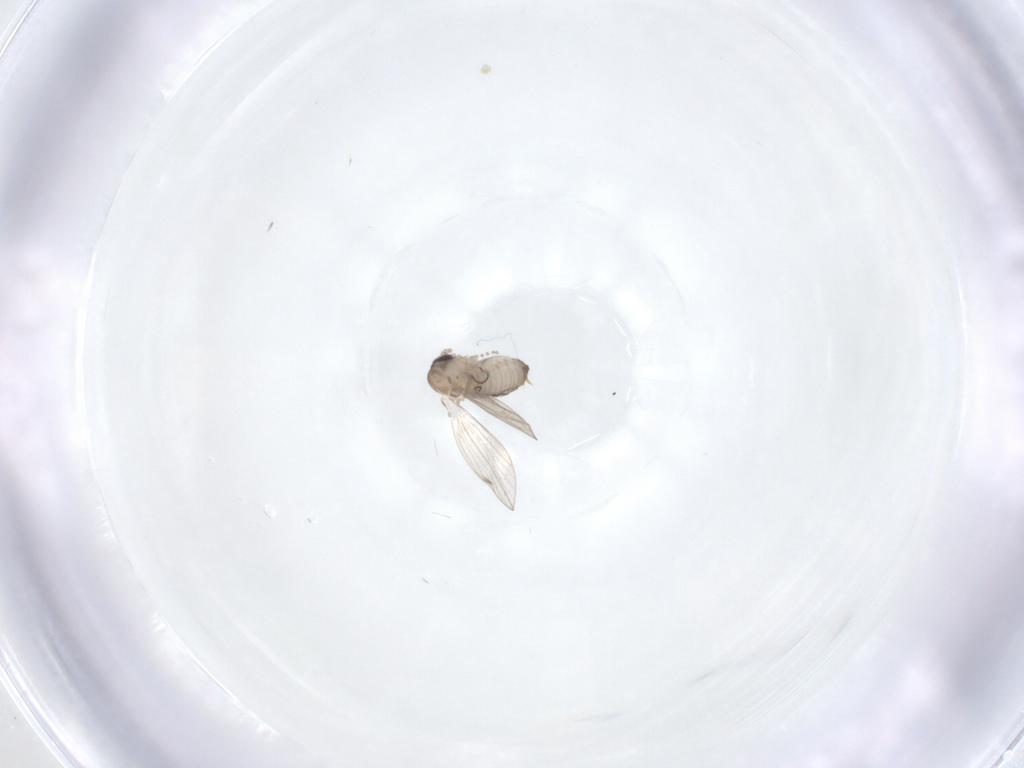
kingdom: Animalia
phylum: Arthropoda
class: Insecta
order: Diptera
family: Psychodidae
